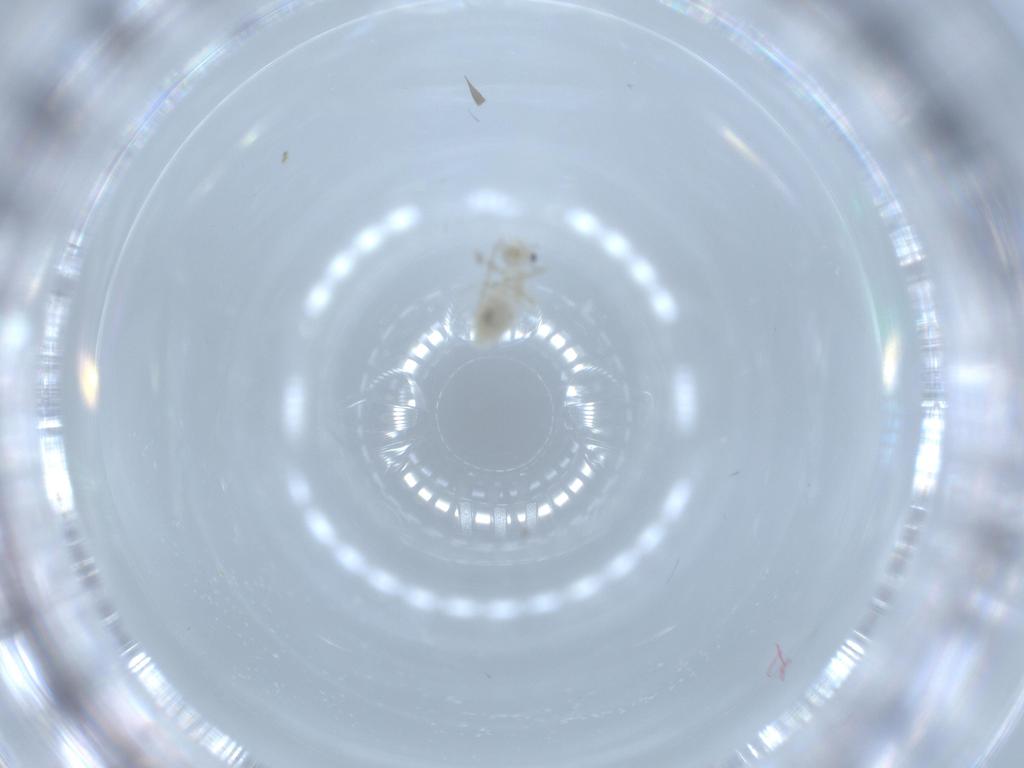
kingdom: Animalia
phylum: Arthropoda
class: Insecta
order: Psocodea
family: Caeciliusidae
